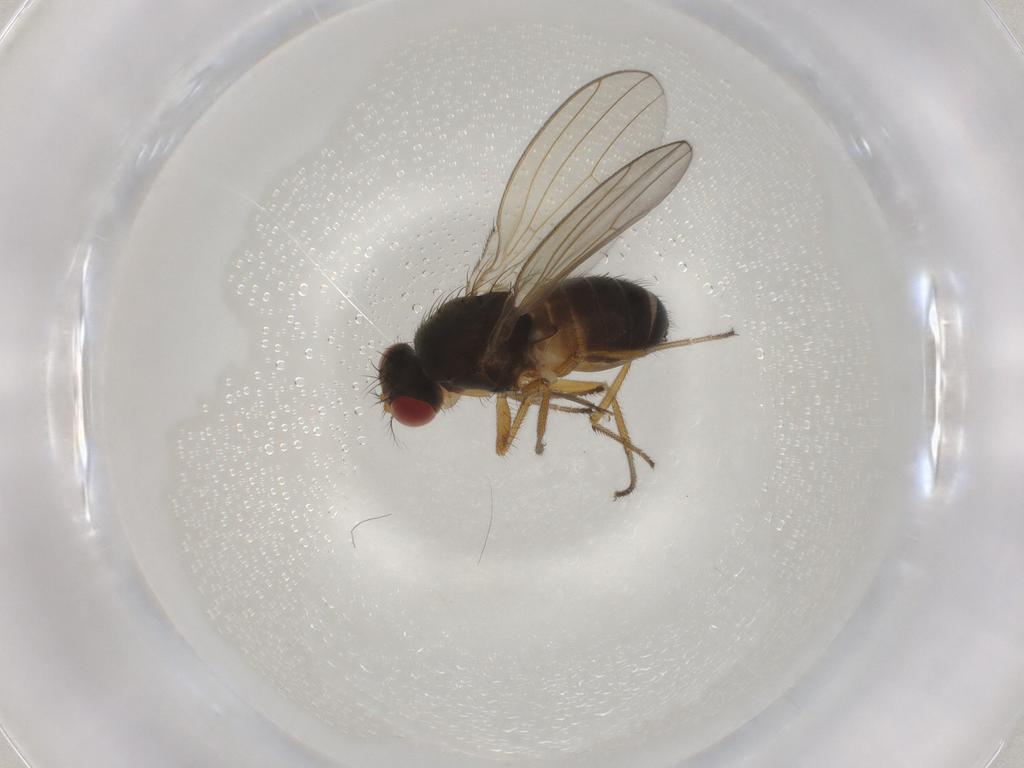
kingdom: Animalia
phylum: Arthropoda
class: Insecta
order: Diptera
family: Drosophilidae
